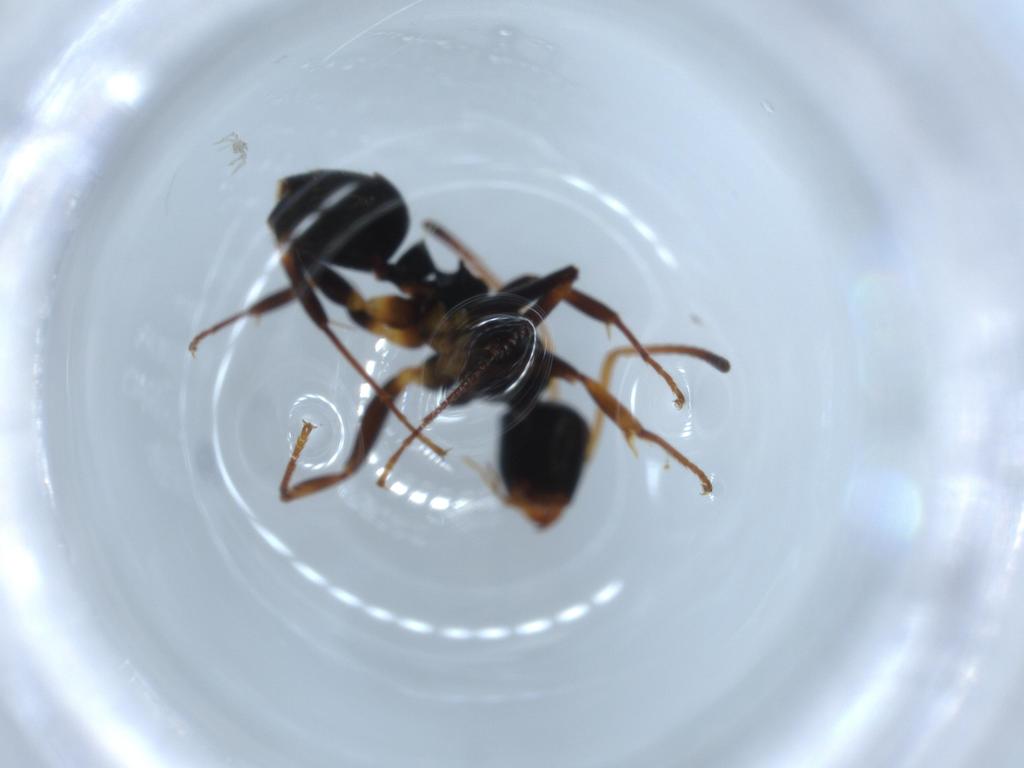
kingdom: Animalia
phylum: Arthropoda
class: Insecta
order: Hymenoptera
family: Formicidae
